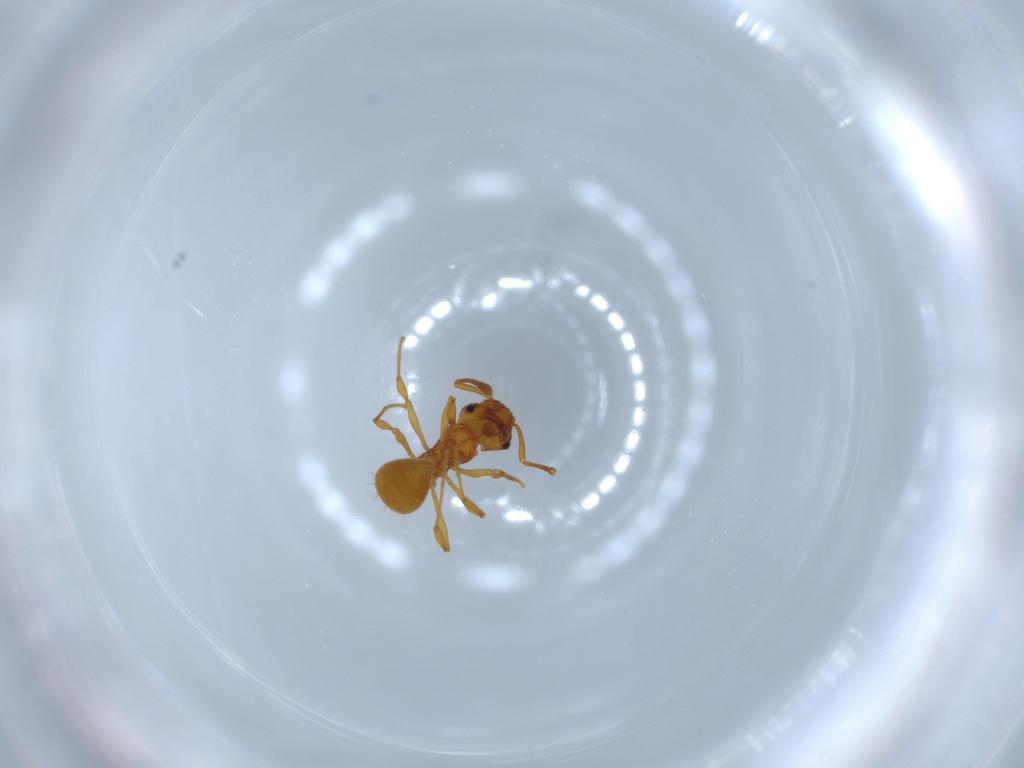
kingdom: Animalia
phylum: Arthropoda
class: Insecta
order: Hymenoptera
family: Formicidae
